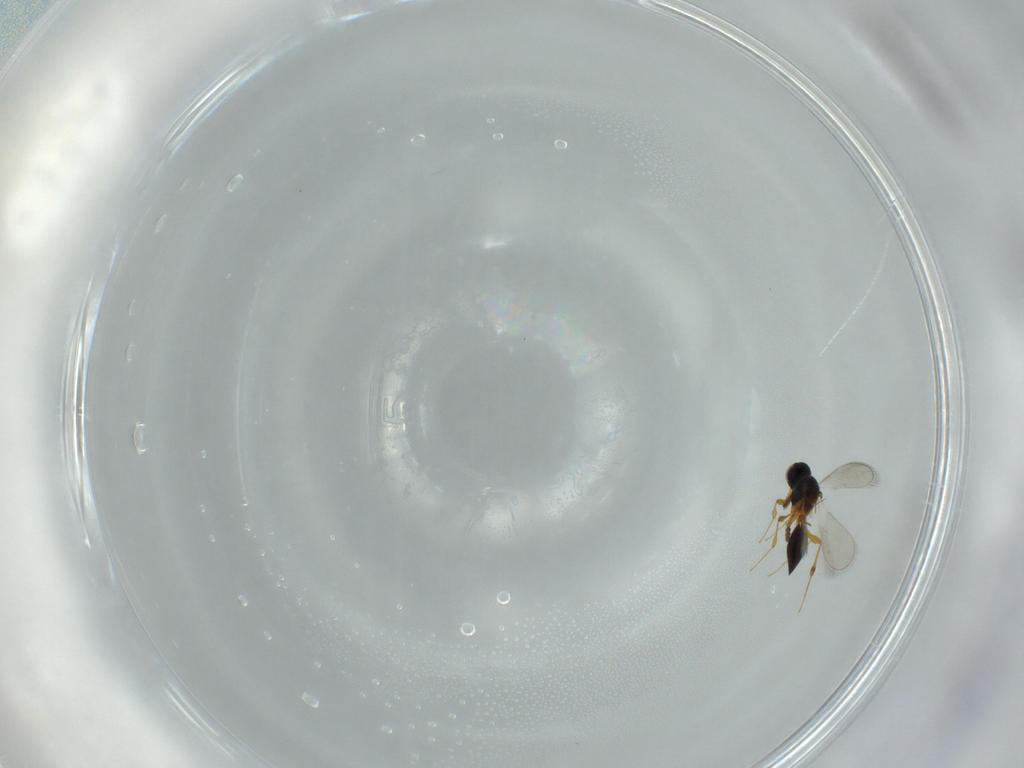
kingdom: Animalia
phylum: Arthropoda
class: Insecta
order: Hymenoptera
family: Platygastridae
